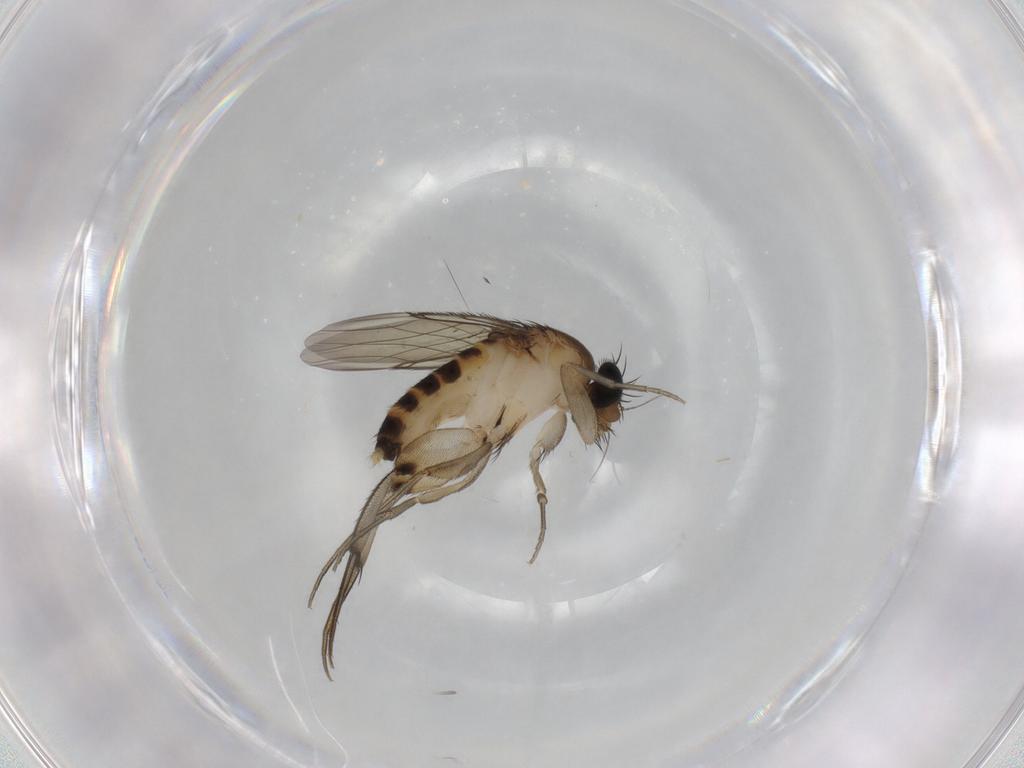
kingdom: Animalia
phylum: Arthropoda
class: Insecta
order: Diptera
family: Phoridae
